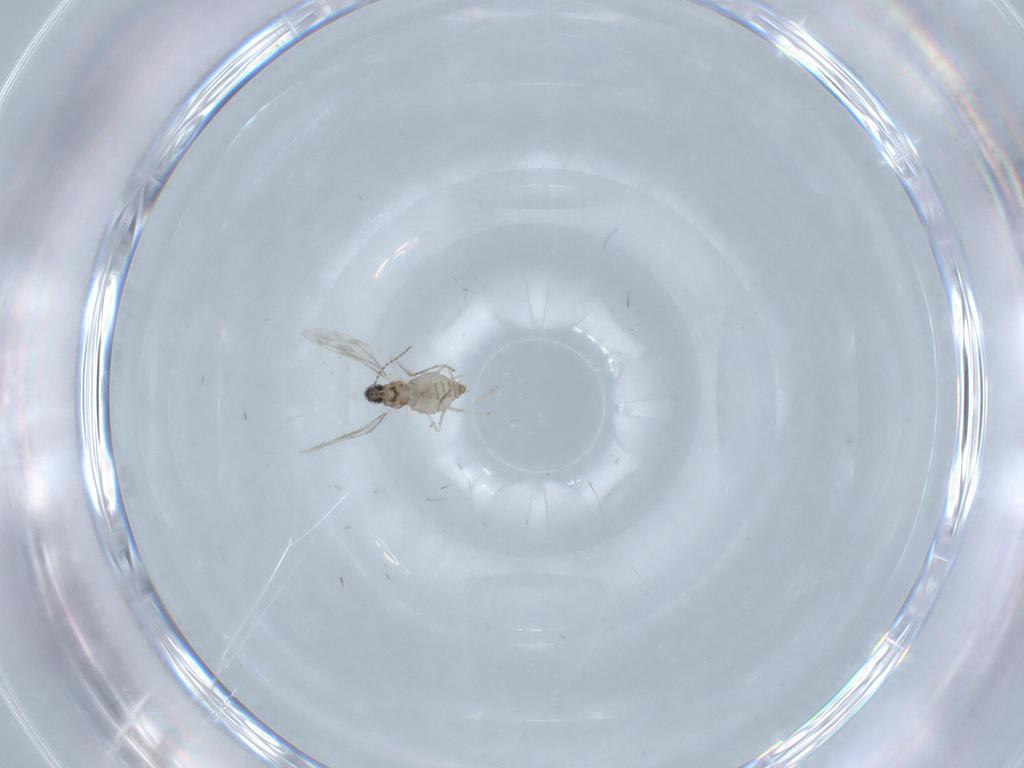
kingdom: Animalia
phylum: Arthropoda
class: Insecta
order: Diptera
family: Cecidomyiidae
